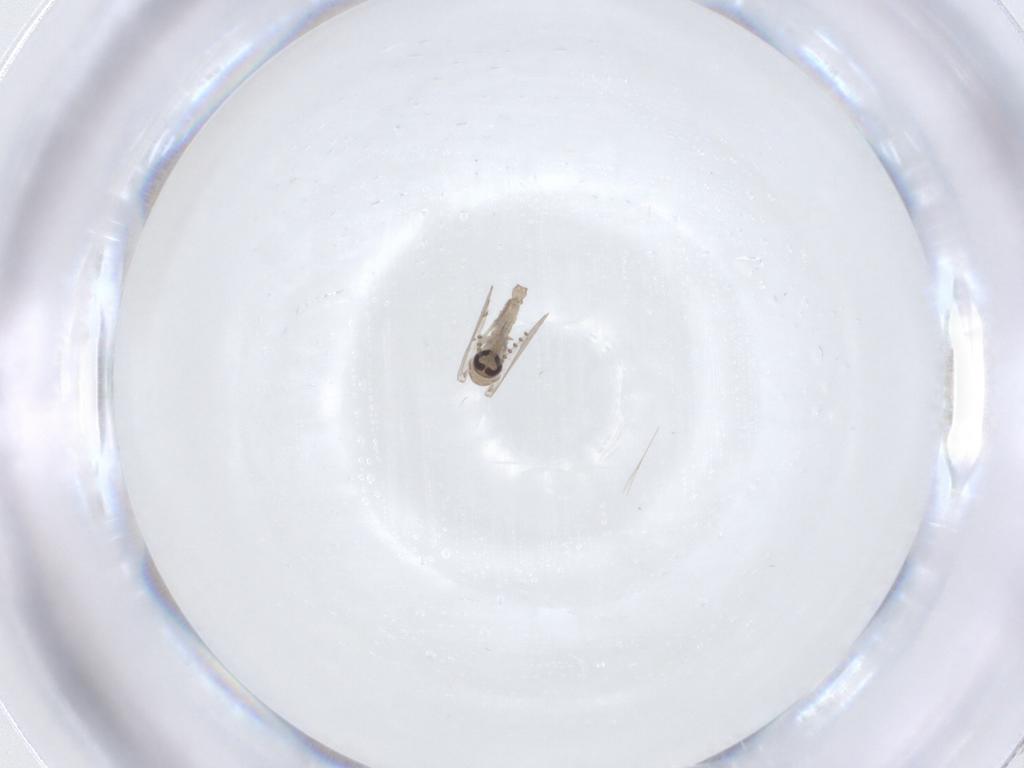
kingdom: Animalia
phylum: Arthropoda
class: Insecta
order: Diptera
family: Psychodidae
